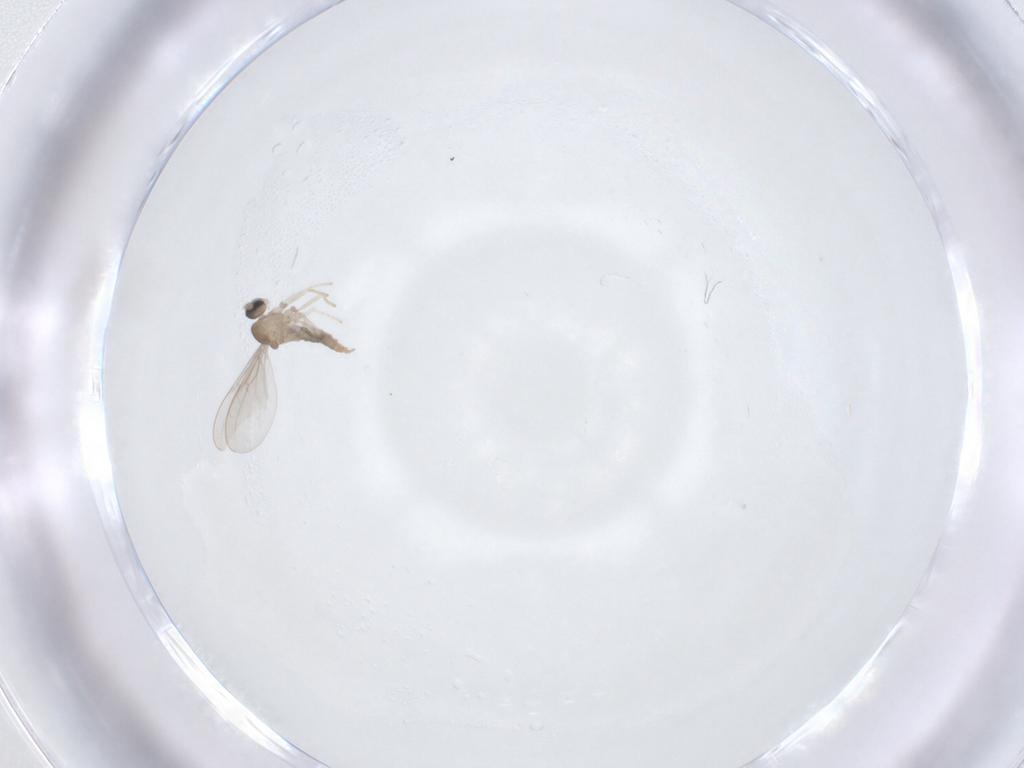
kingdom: Animalia
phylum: Arthropoda
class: Insecta
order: Diptera
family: Cecidomyiidae
